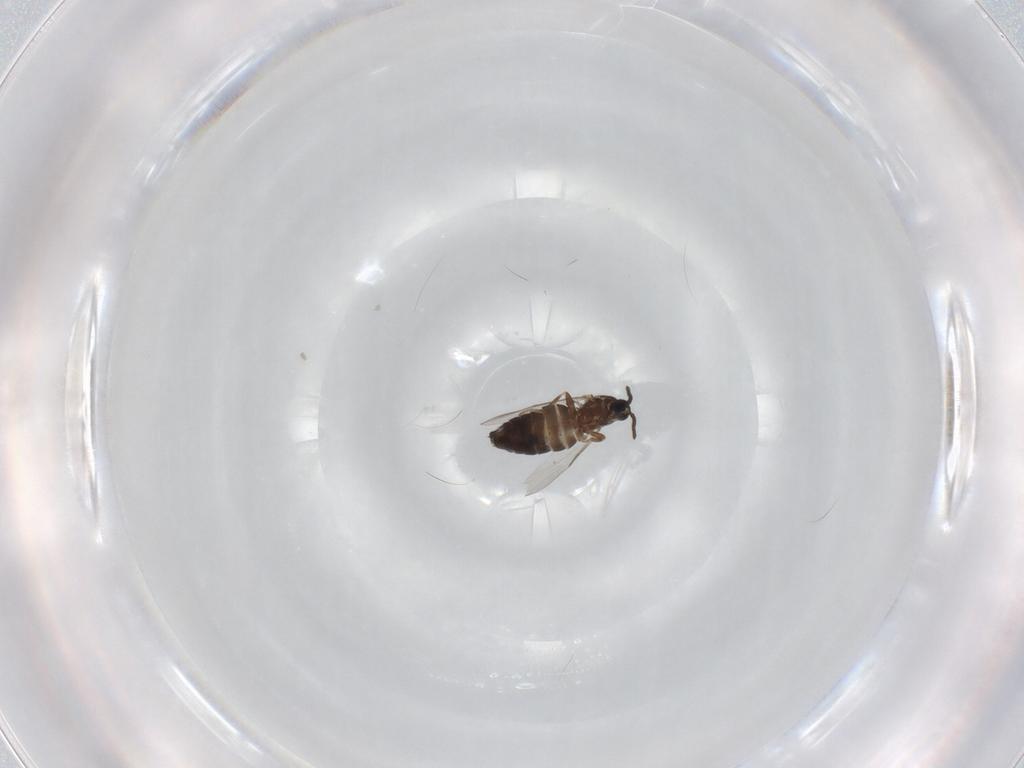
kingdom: Animalia
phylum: Arthropoda
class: Insecta
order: Diptera
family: Scatopsidae
